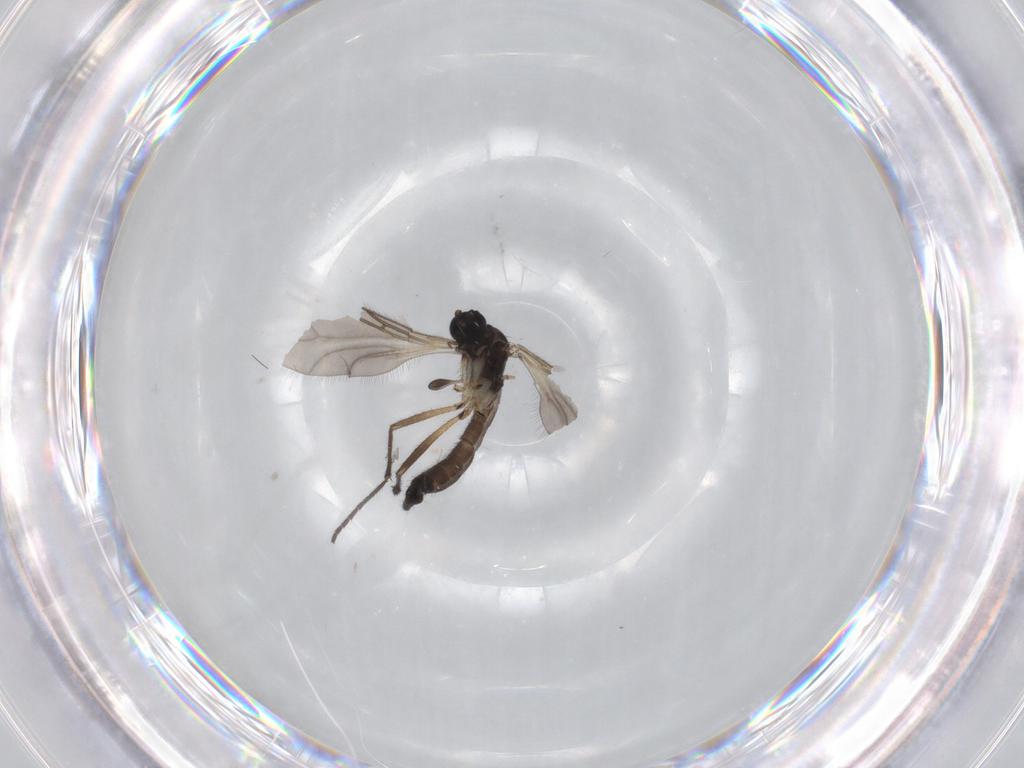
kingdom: Animalia
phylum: Arthropoda
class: Insecta
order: Diptera
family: Sciaridae
